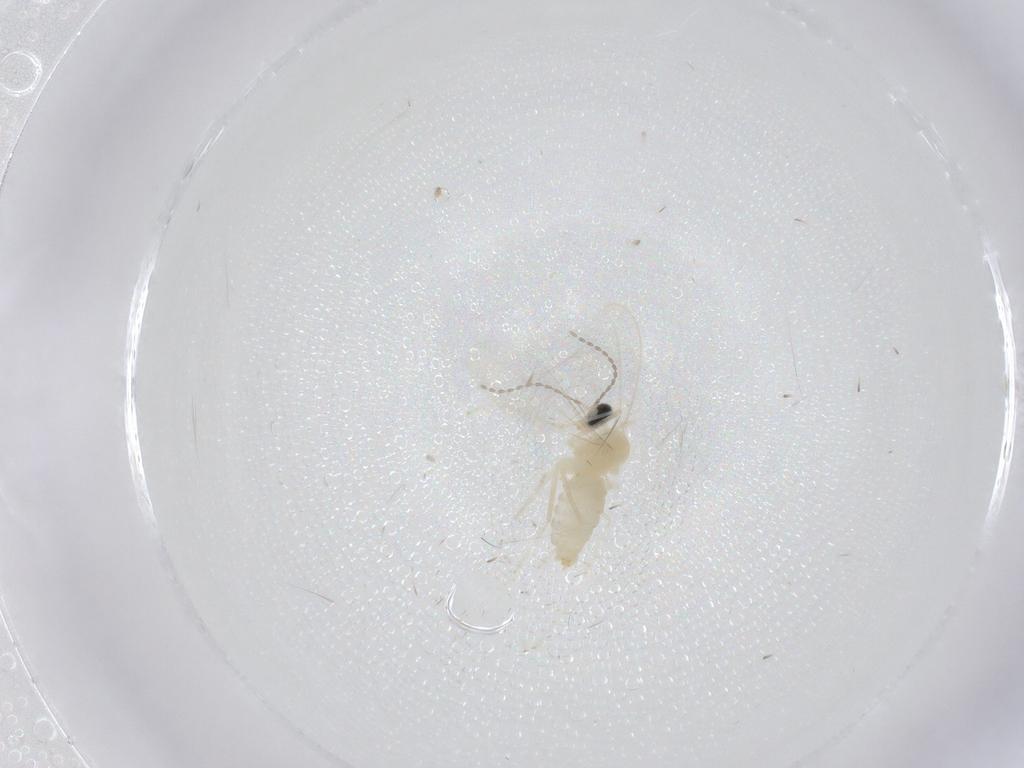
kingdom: Animalia
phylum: Arthropoda
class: Insecta
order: Diptera
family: Cecidomyiidae
